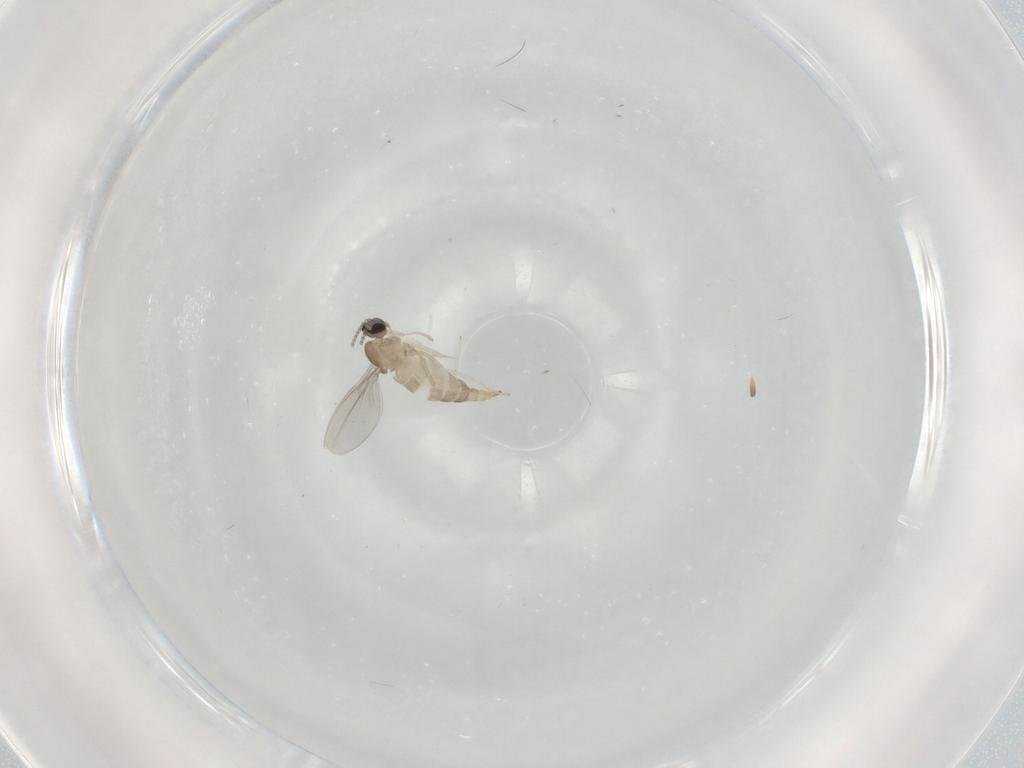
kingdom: Animalia
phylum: Arthropoda
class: Insecta
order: Diptera
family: Cecidomyiidae
